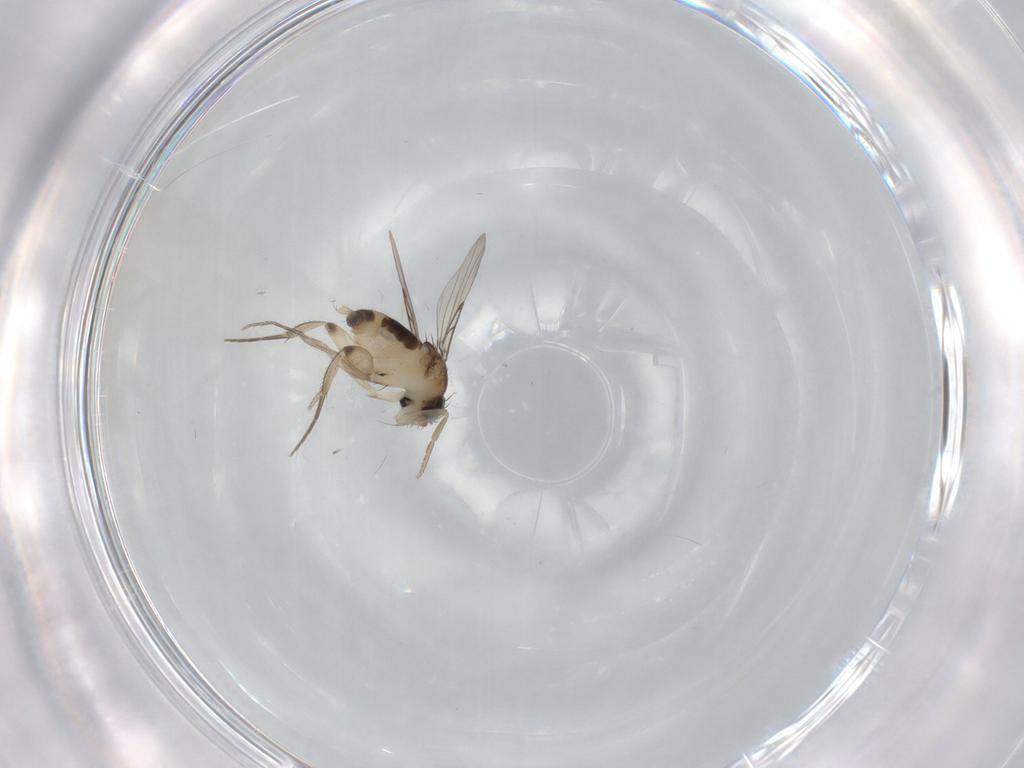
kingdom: Animalia
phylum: Arthropoda
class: Insecta
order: Diptera
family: Phoridae
